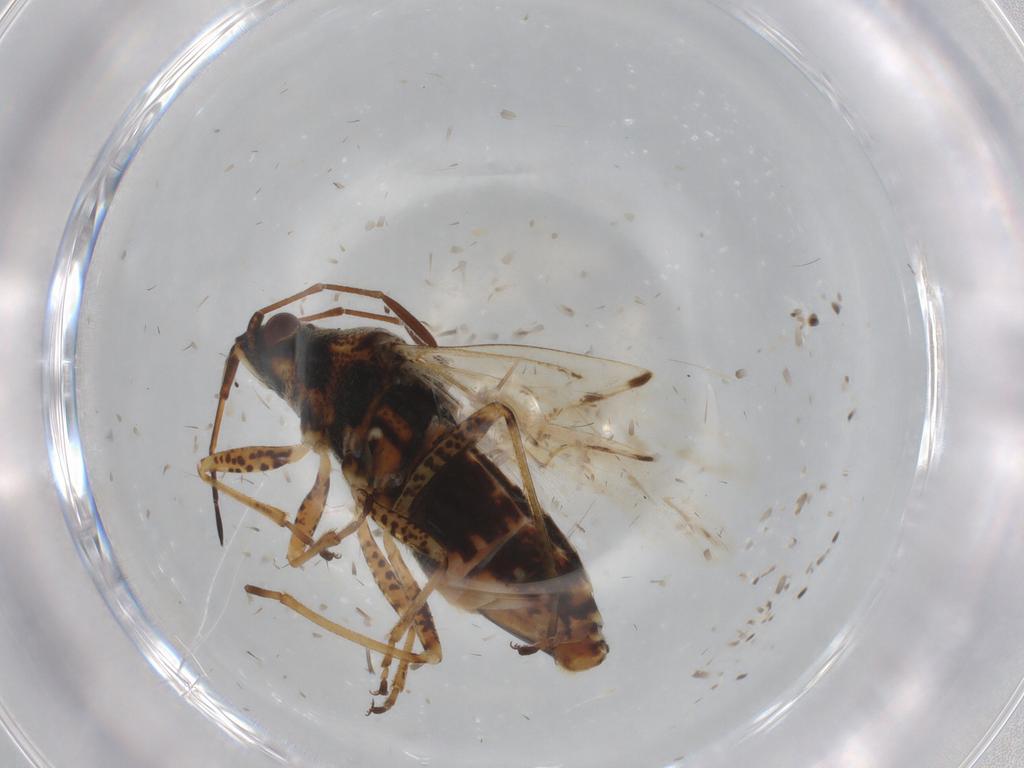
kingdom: Animalia
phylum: Arthropoda
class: Insecta
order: Hemiptera
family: Lygaeidae
